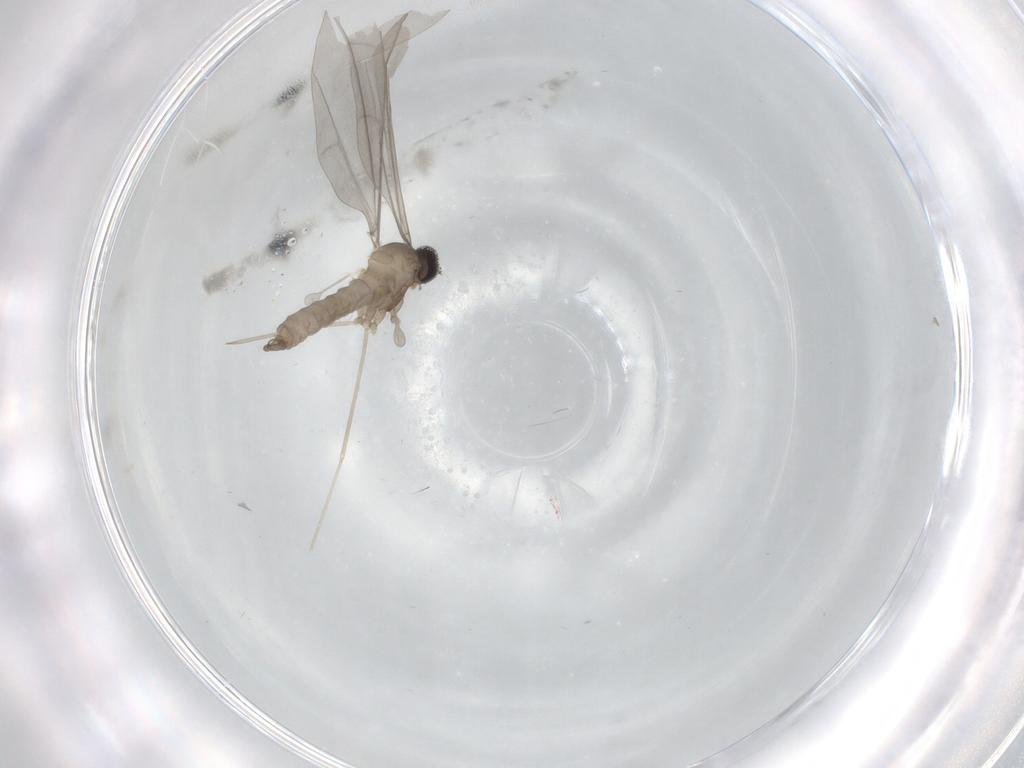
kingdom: Animalia
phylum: Arthropoda
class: Insecta
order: Diptera
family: Cecidomyiidae
